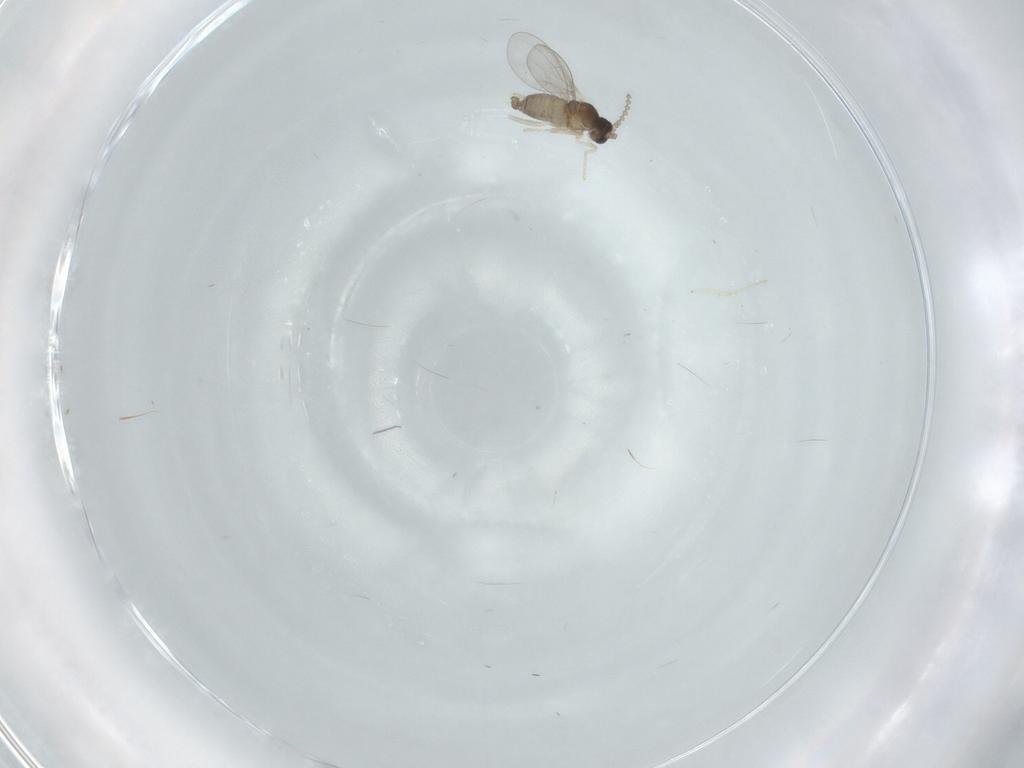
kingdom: Animalia
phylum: Arthropoda
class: Insecta
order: Diptera
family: Cecidomyiidae
